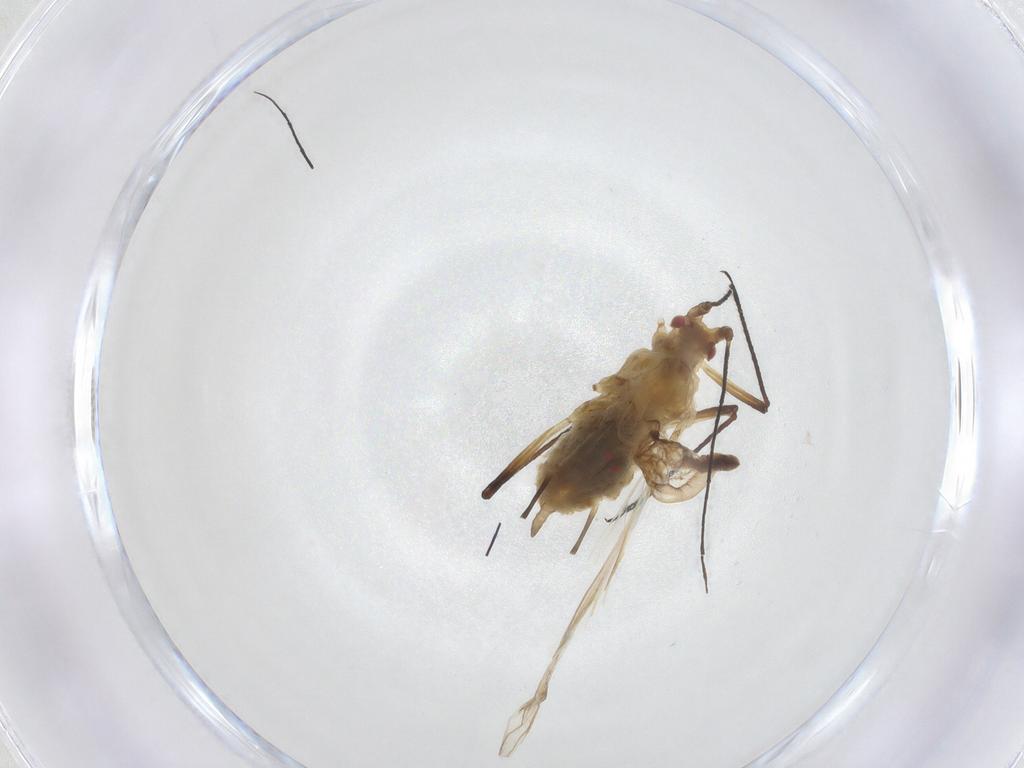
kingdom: Animalia
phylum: Arthropoda
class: Insecta
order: Hemiptera
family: Aphididae
